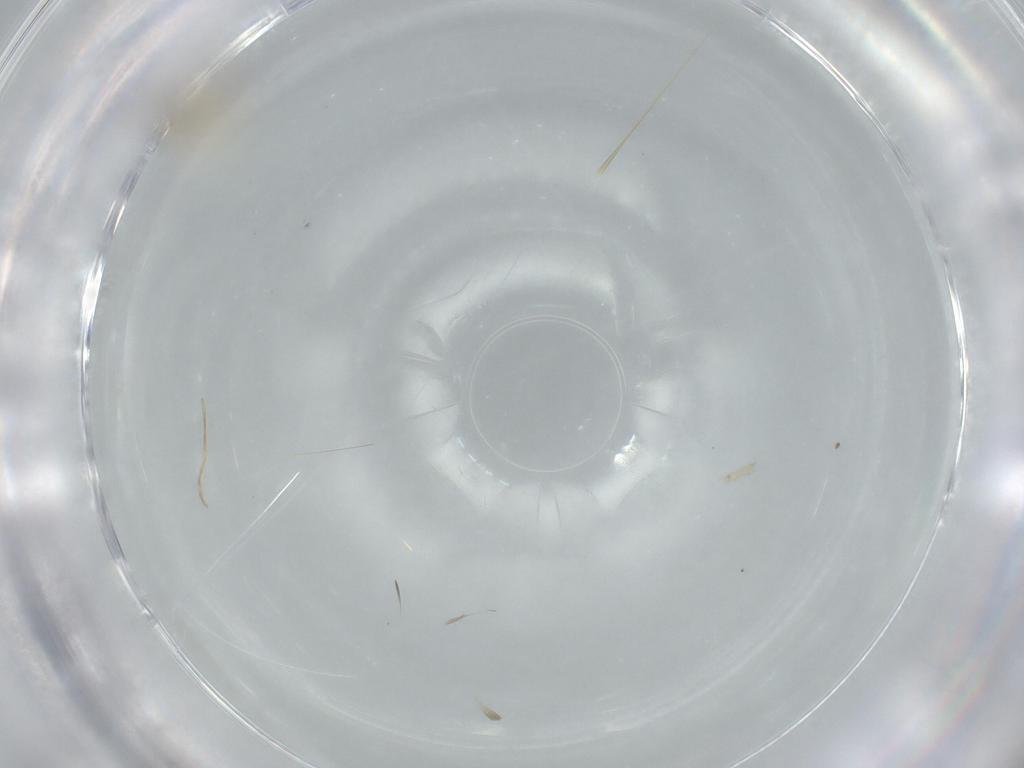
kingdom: Animalia
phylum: Arthropoda
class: Insecta
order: Diptera
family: Cecidomyiidae
